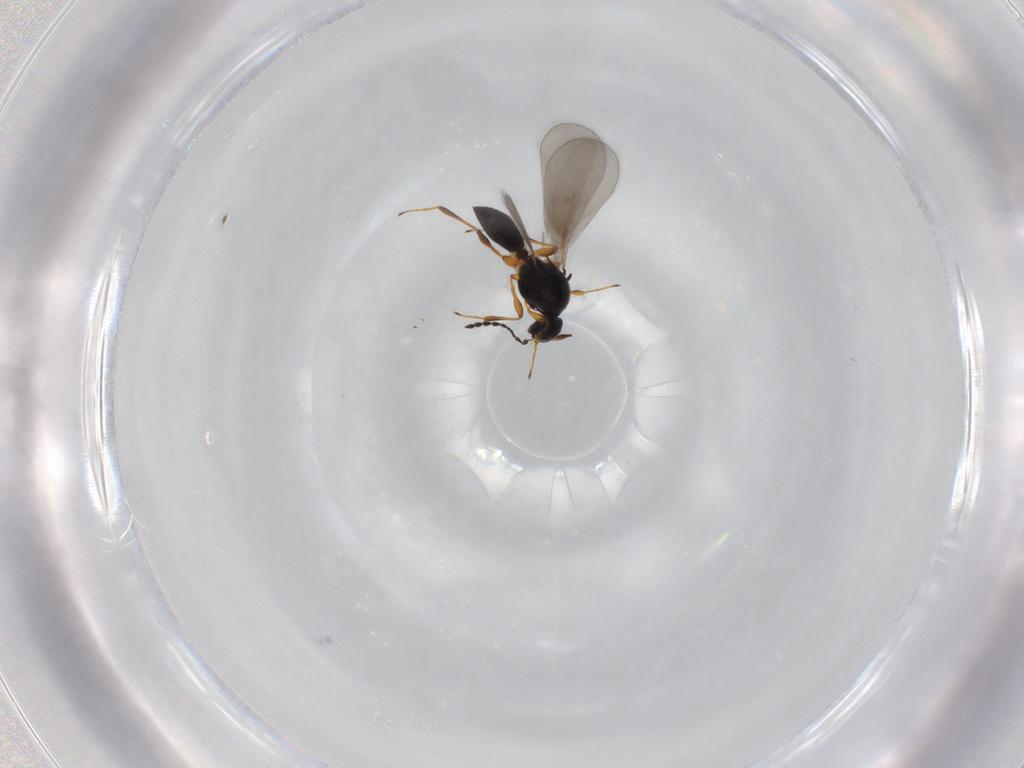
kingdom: Animalia
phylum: Arthropoda
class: Insecta
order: Hymenoptera
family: Platygastridae
